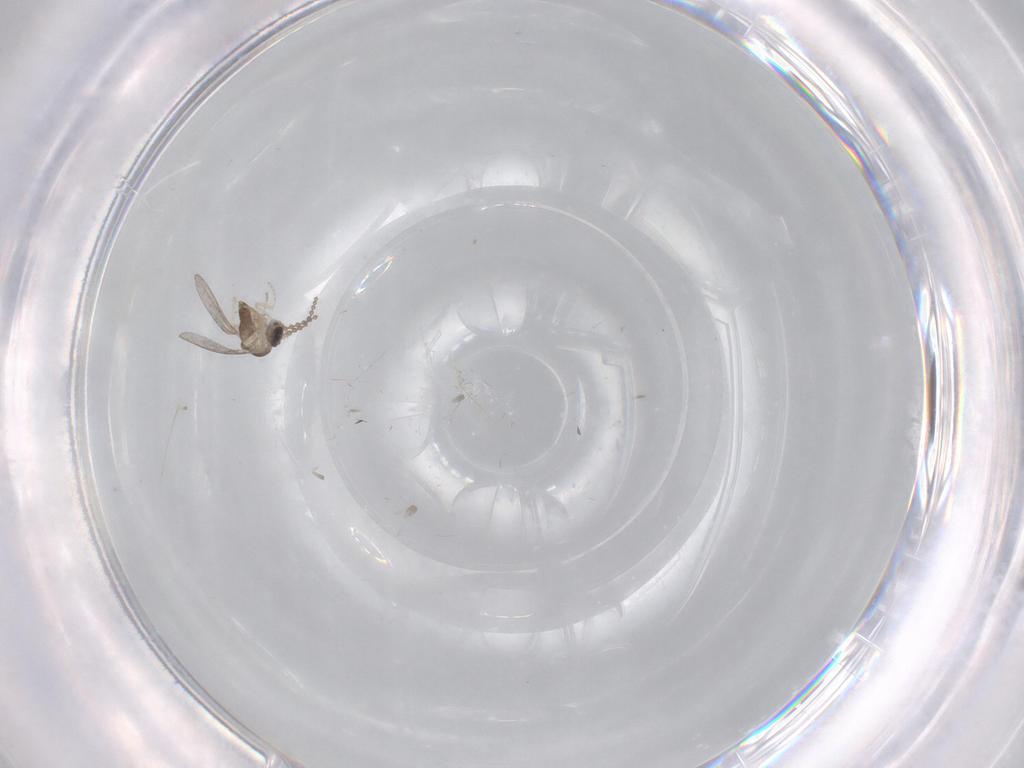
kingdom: Animalia
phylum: Arthropoda
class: Insecta
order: Diptera
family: Cecidomyiidae
